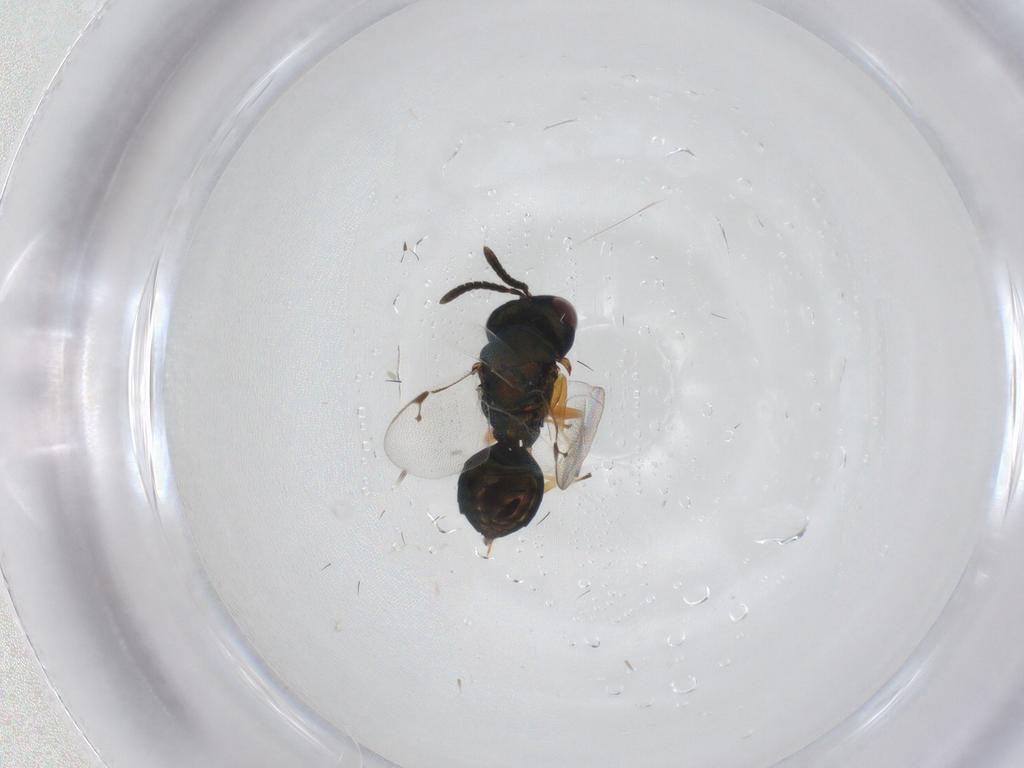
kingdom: Animalia
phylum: Arthropoda
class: Insecta
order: Hymenoptera
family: Pteromalidae
